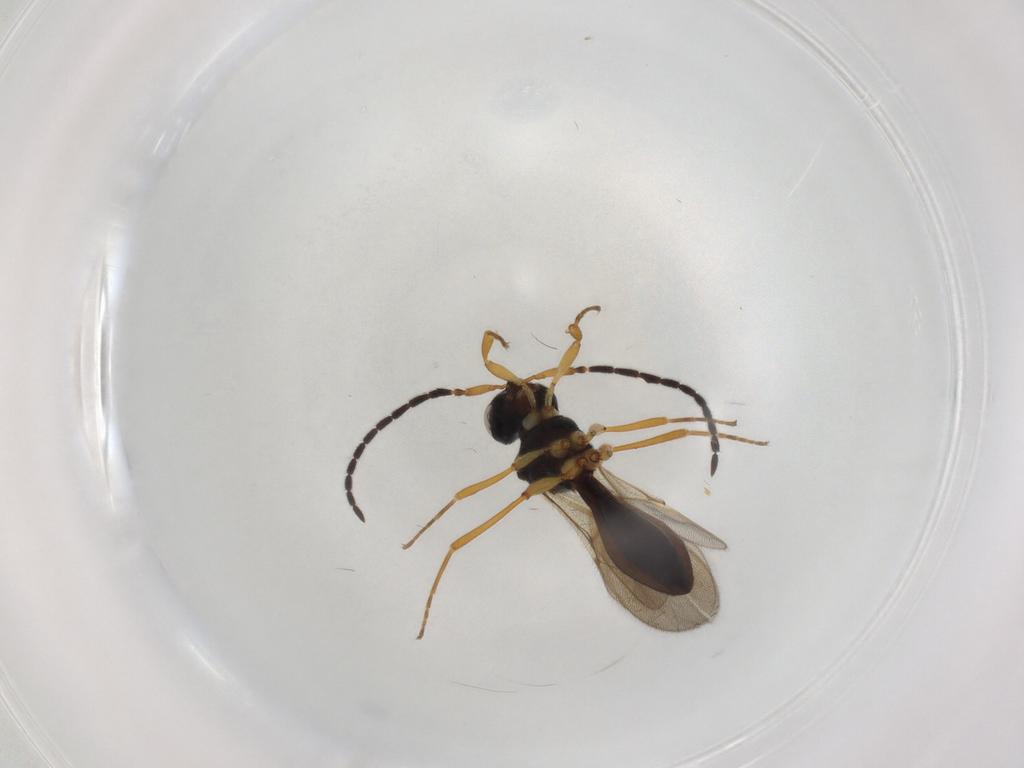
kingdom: Animalia
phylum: Arthropoda
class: Insecta
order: Hymenoptera
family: Scelionidae
